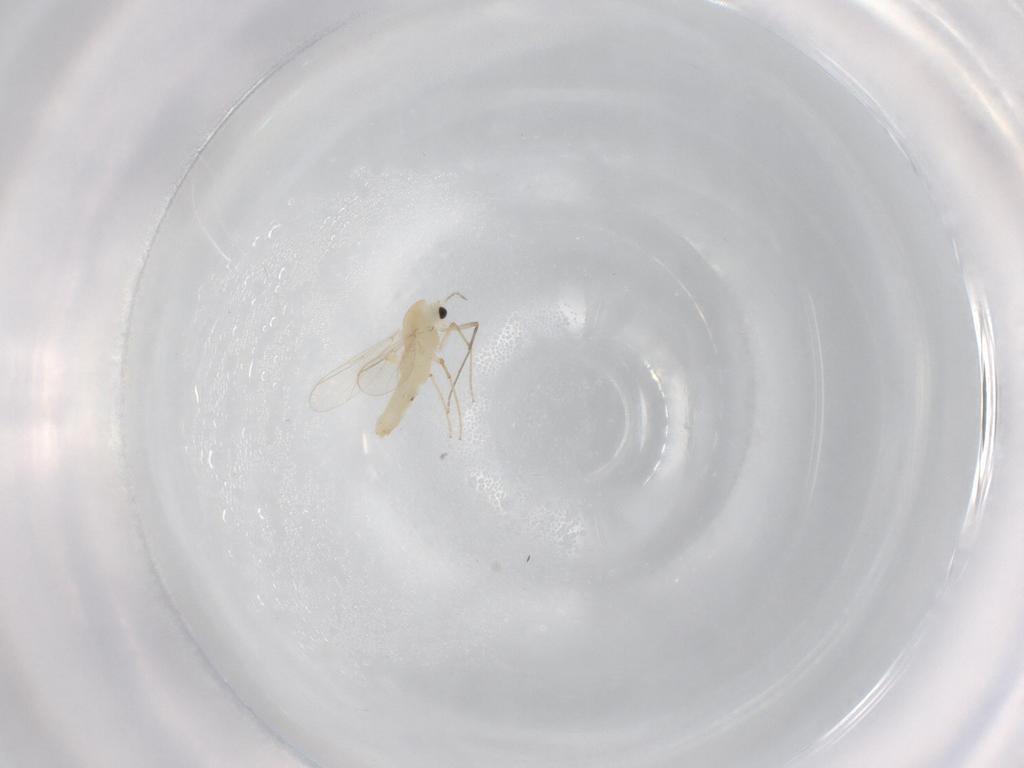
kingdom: Animalia
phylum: Arthropoda
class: Insecta
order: Diptera
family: Chironomidae
